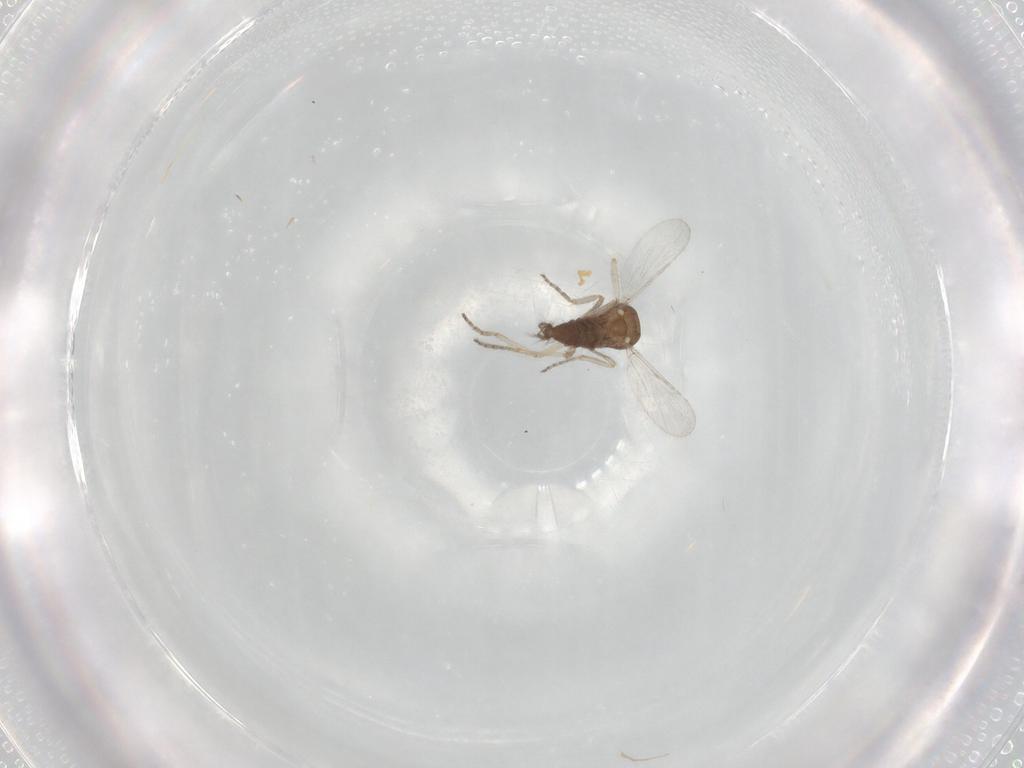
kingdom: Animalia
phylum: Arthropoda
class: Insecta
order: Diptera
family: Ceratopogonidae
